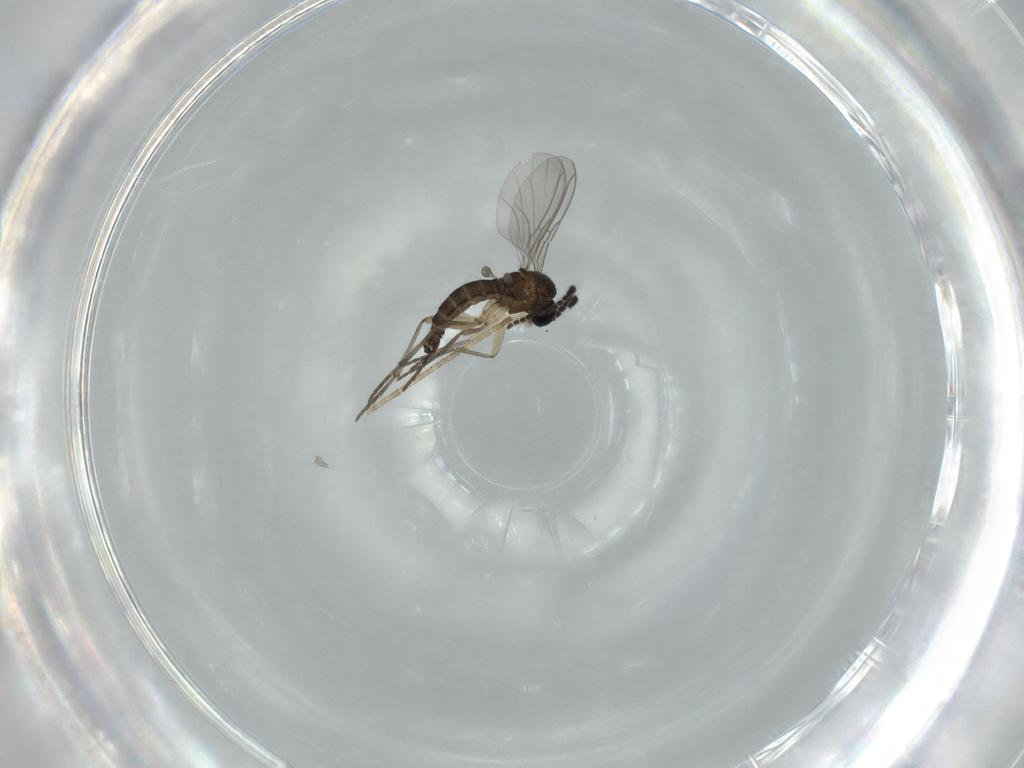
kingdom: Animalia
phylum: Arthropoda
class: Insecta
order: Diptera
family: Sciaridae
